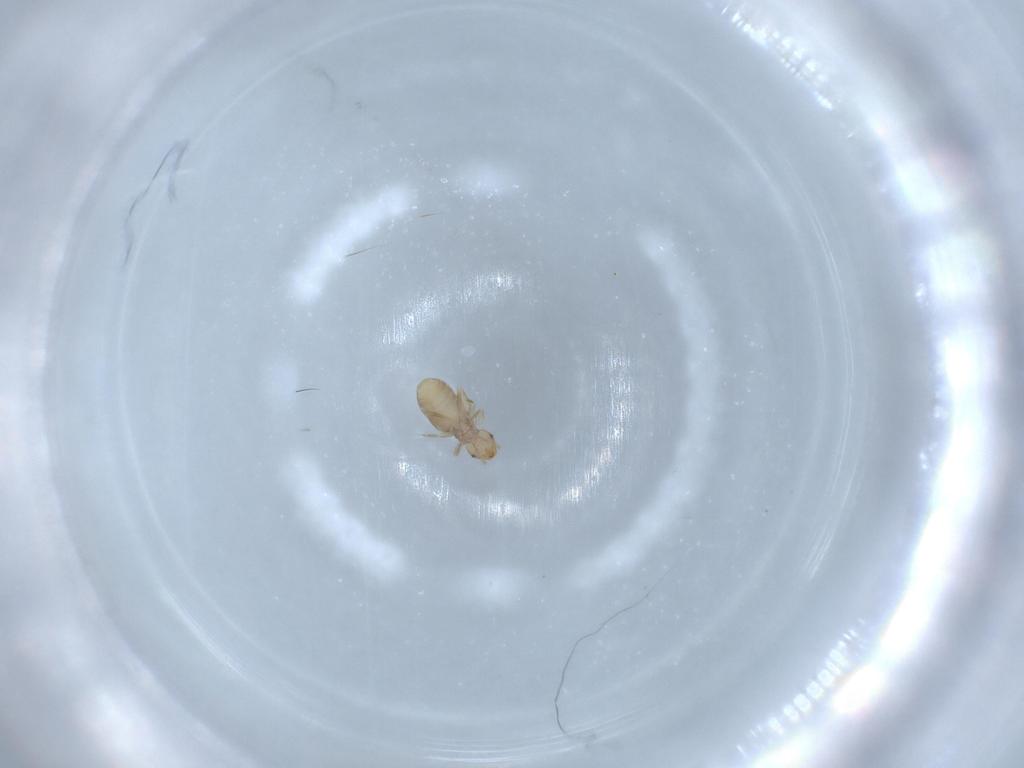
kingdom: Animalia
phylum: Arthropoda
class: Insecta
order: Psocodea
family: Liposcelididae
